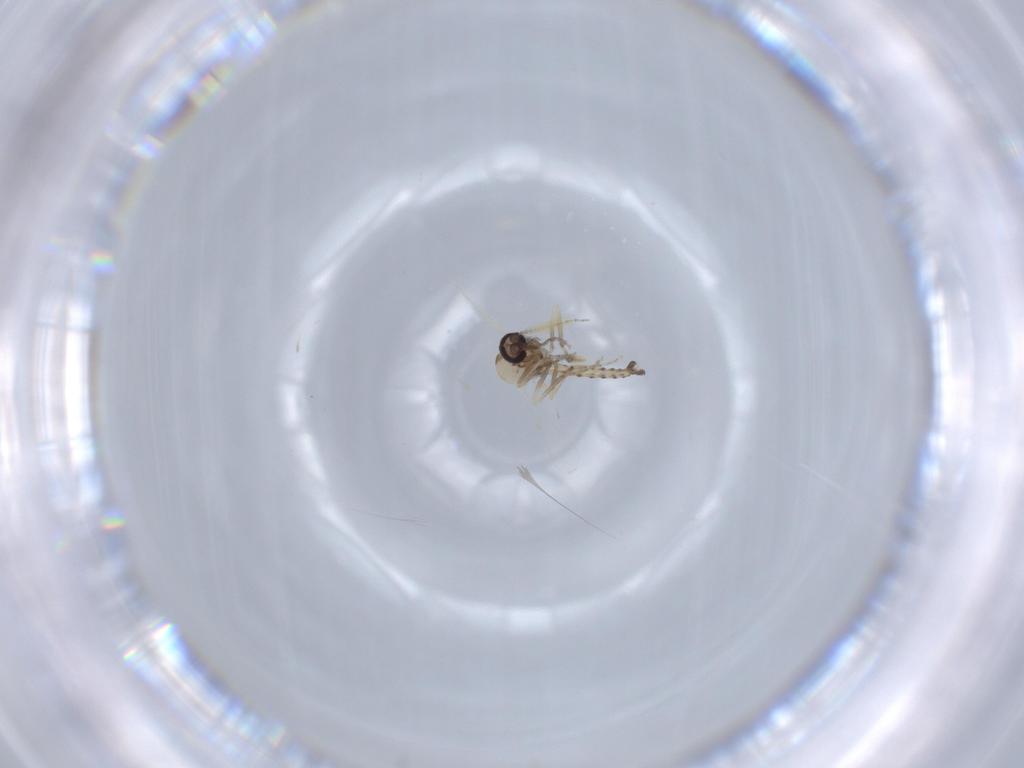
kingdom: Animalia
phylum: Arthropoda
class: Insecta
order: Diptera
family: Ceratopogonidae
